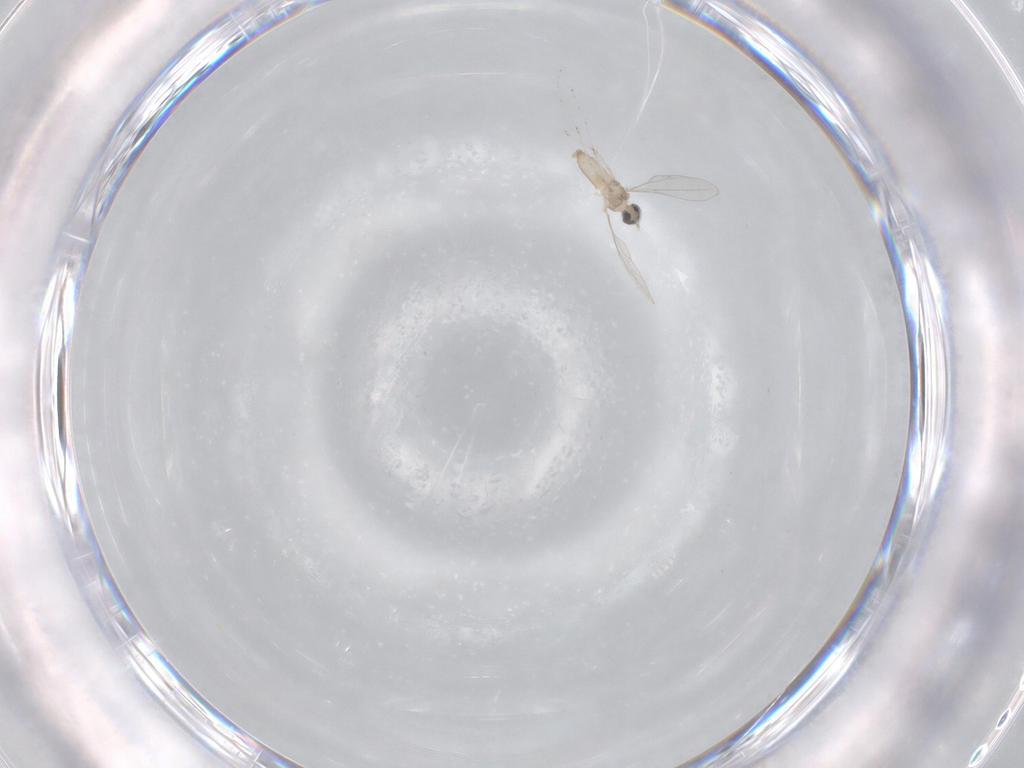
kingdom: Animalia
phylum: Arthropoda
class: Insecta
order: Diptera
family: Cecidomyiidae
